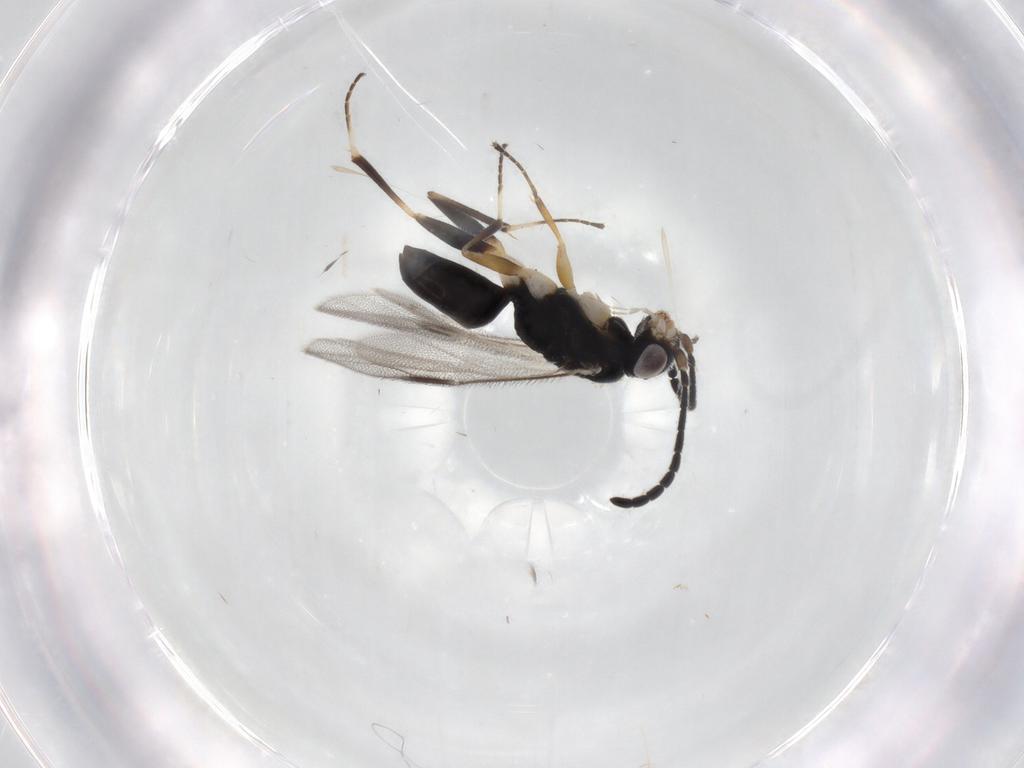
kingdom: Animalia
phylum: Arthropoda
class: Insecta
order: Hymenoptera
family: Dryinidae
